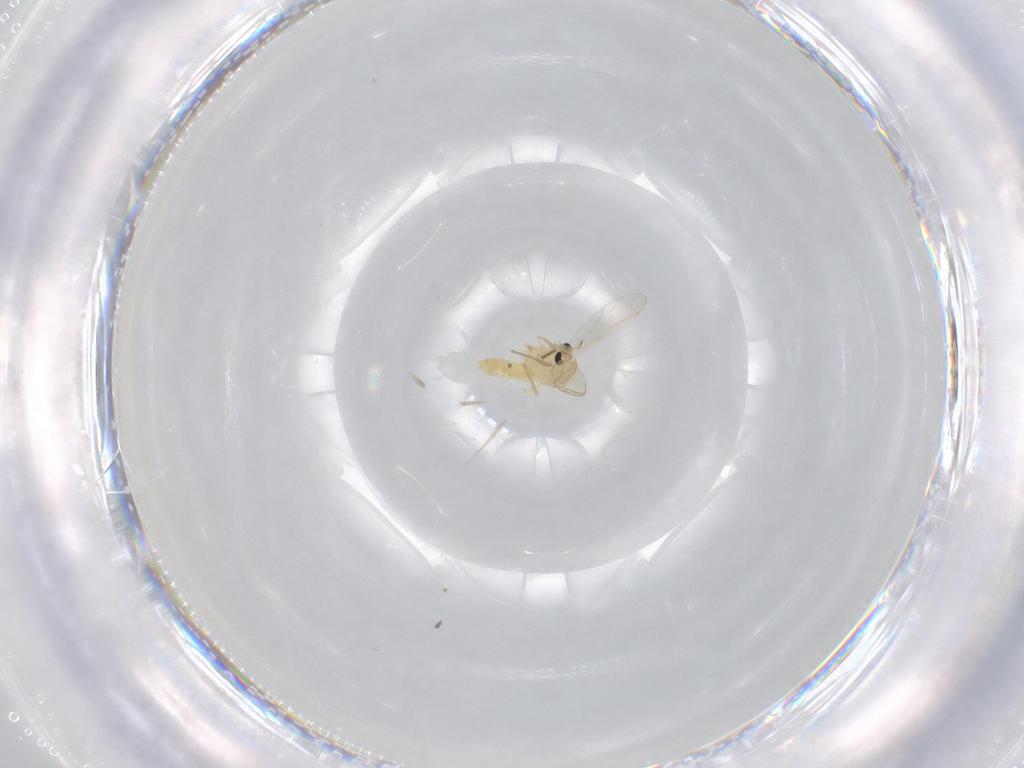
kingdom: Animalia
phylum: Arthropoda
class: Insecta
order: Diptera
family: Chironomidae
